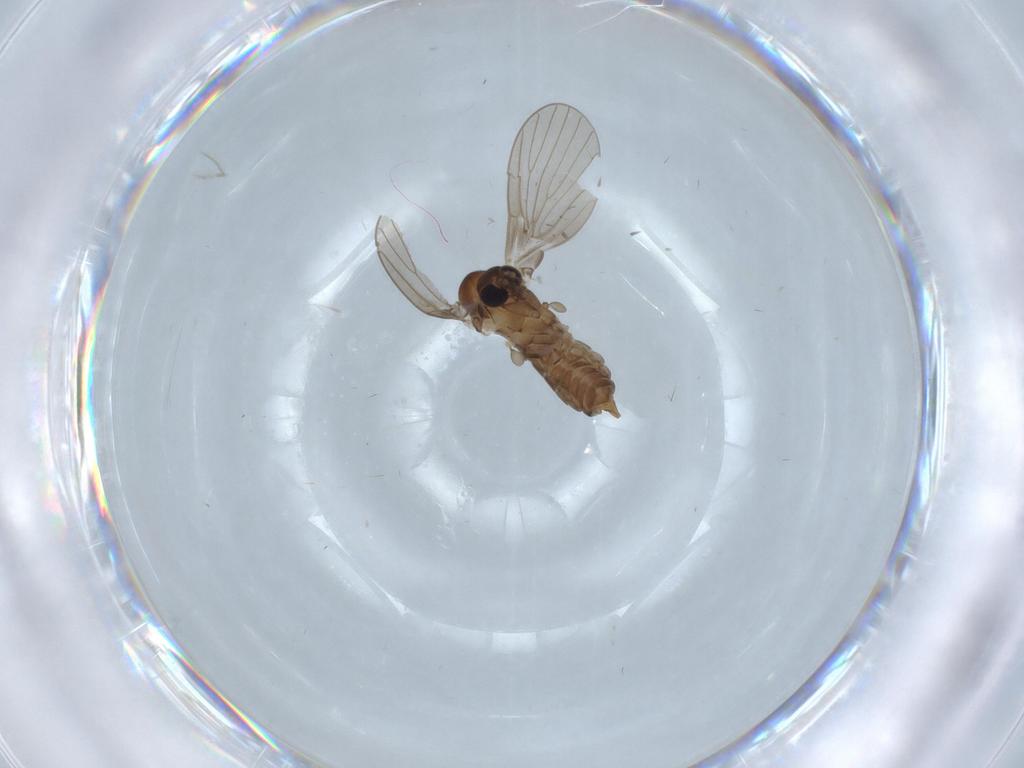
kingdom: Animalia
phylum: Arthropoda
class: Insecta
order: Diptera
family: Psychodidae
